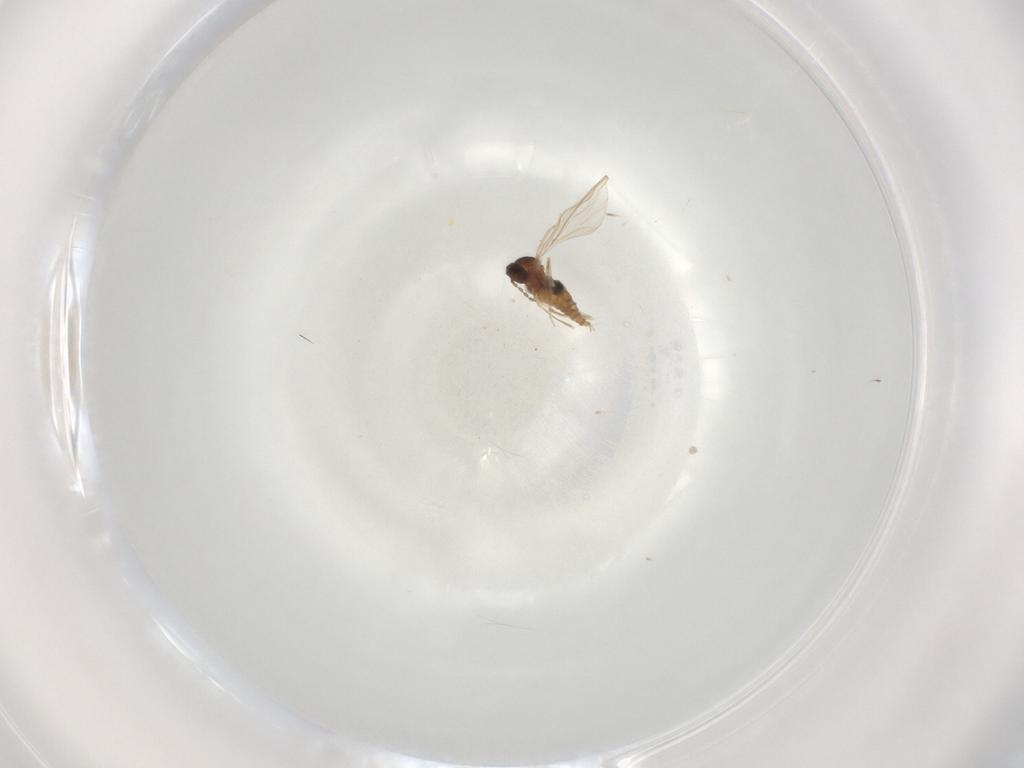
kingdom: Animalia
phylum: Arthropoda
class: Insecta
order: Diptera
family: Cecidomyiidae
